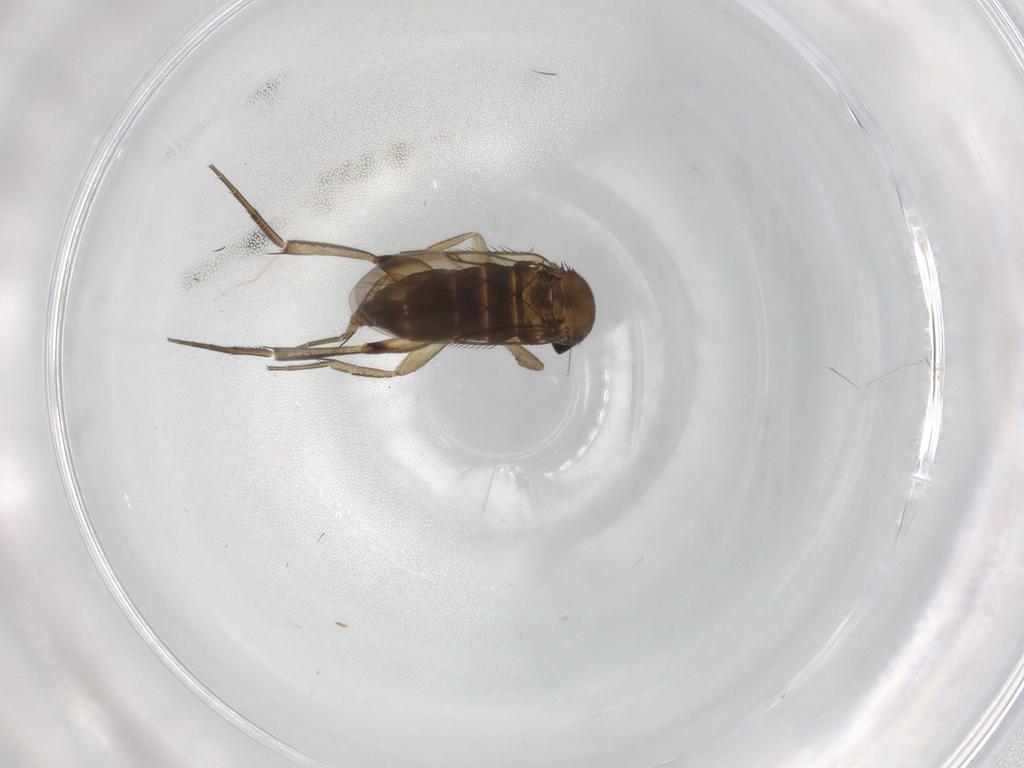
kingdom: Animalia
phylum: Arthropoda
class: Insecta
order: Diptera
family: Phoridae
